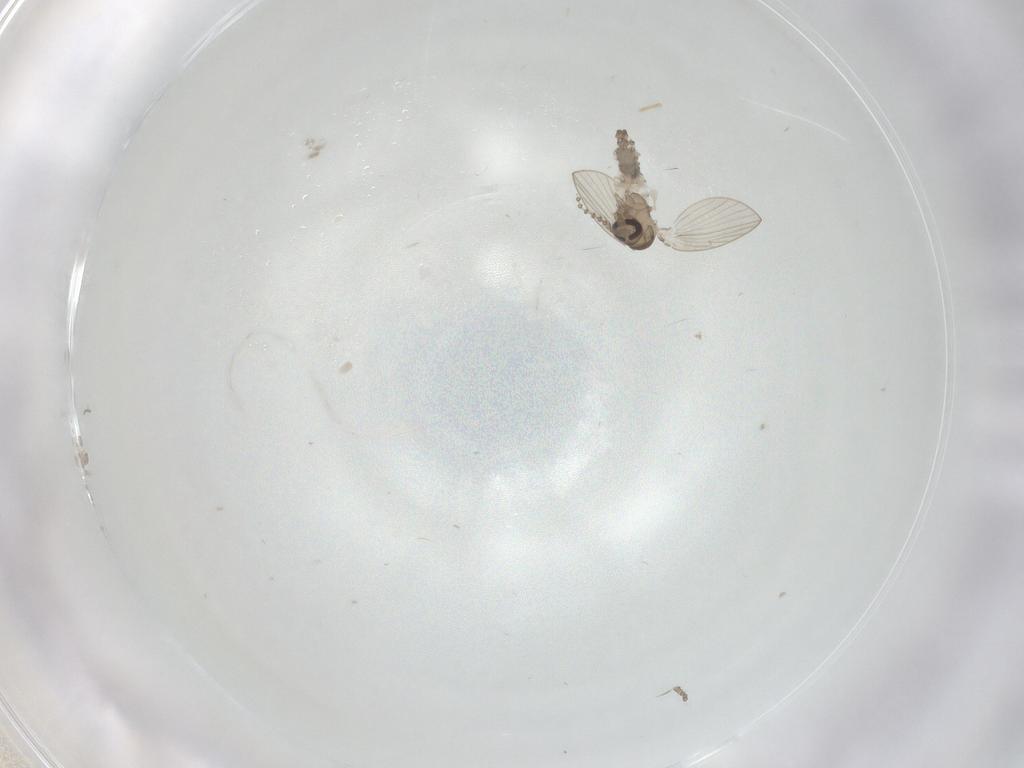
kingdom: Animalia
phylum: Arthropoda
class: Insecta
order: Diptera
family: Psychodidae
